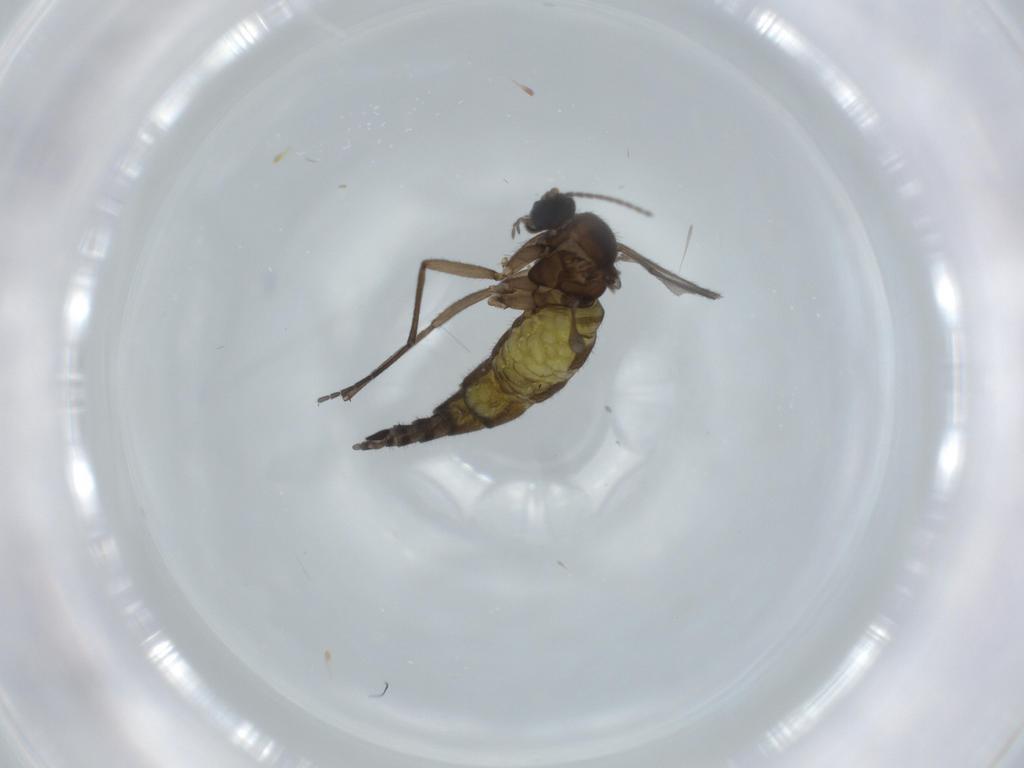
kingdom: Animalia
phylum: Arthropoda
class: Insecta
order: Diptera
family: Sciaridae
